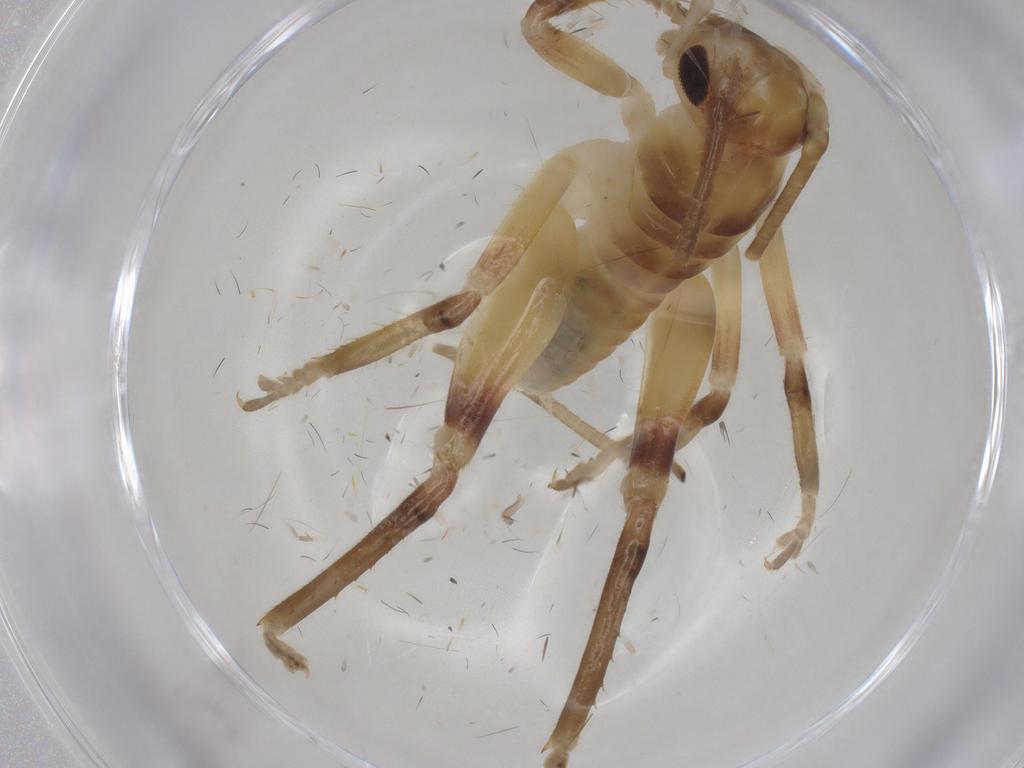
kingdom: Animalia
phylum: Arthropoda
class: Insecta
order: Orthoptera
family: Tettigoniidae
